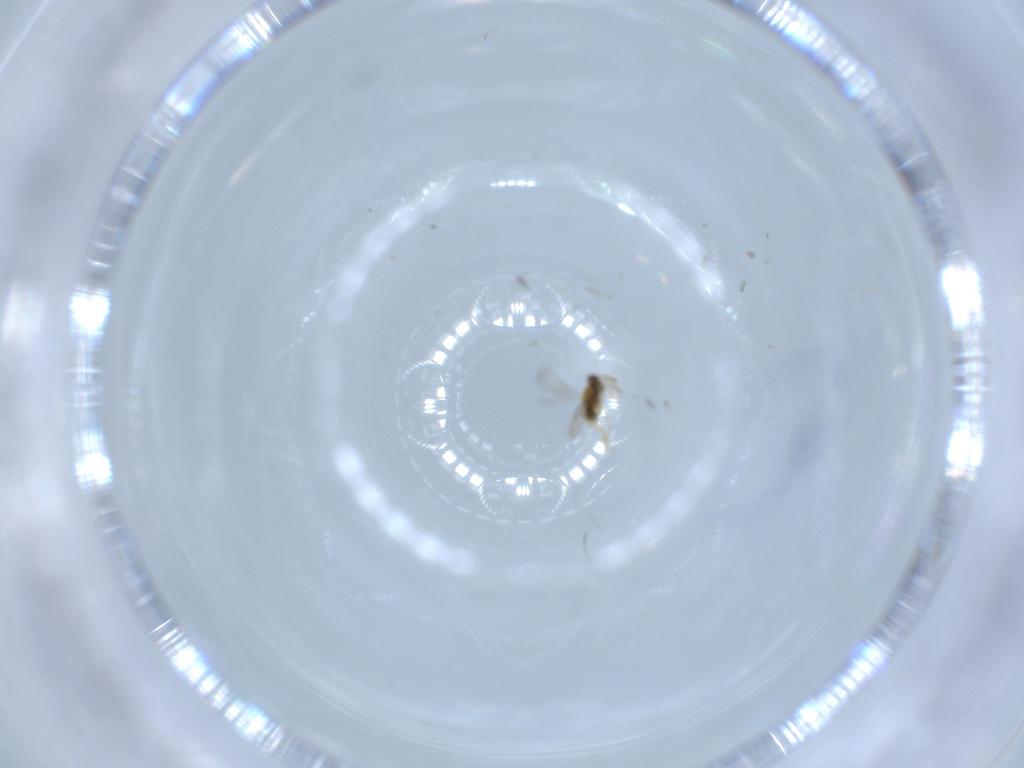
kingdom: Animalia
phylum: Arthropoda
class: Insecta
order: Hymenoptera
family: Aphelinidae
